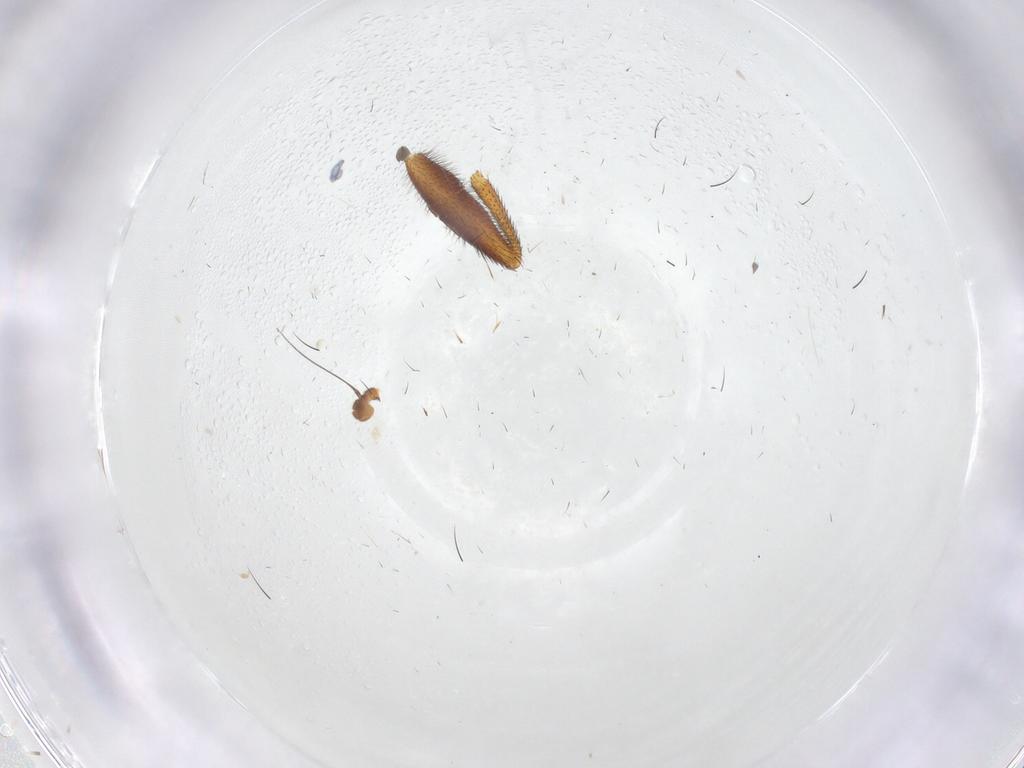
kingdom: Animalia
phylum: Arthropoda
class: Insecta
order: Diptera
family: Heleomyzidae
